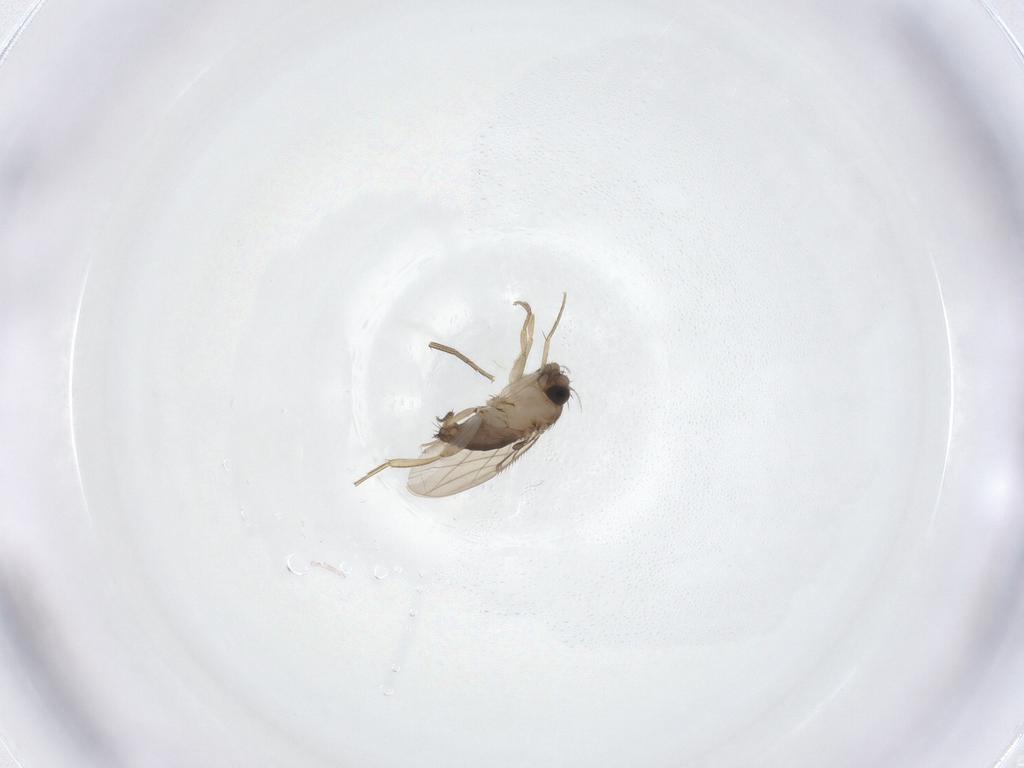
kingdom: Animalia
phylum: Arthropoda
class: Insecta
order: Diptera
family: Phoridae
